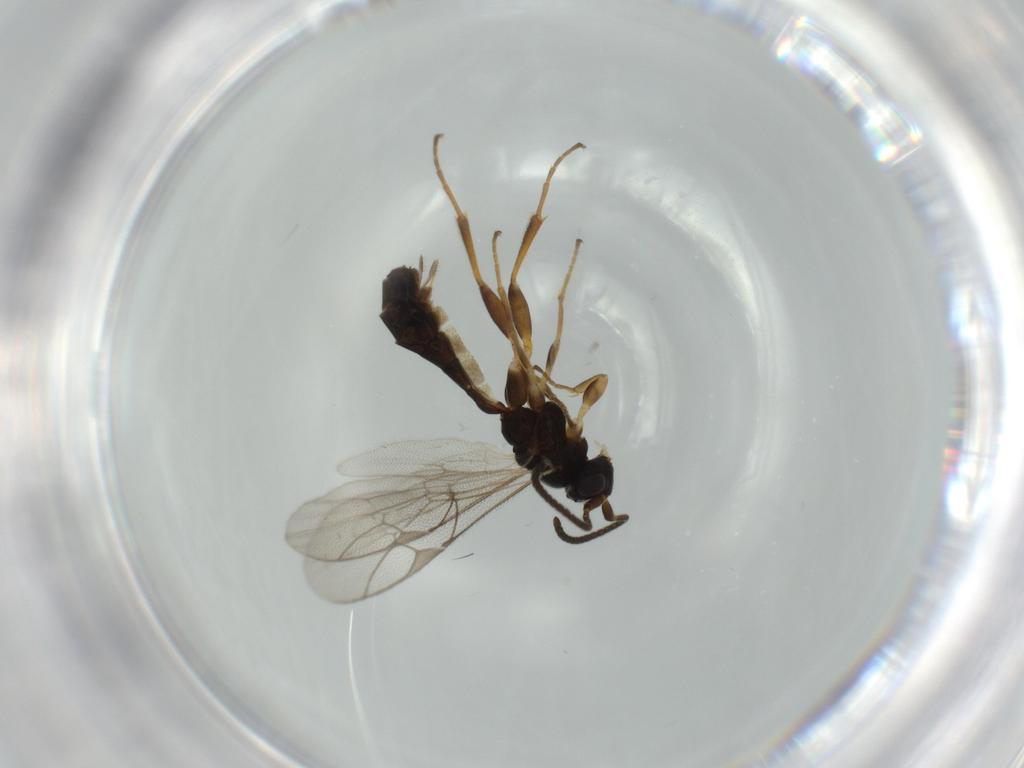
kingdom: Animalia
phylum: Arthropoda
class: Insecta
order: Hymenoptera
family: Ichneumonidae
